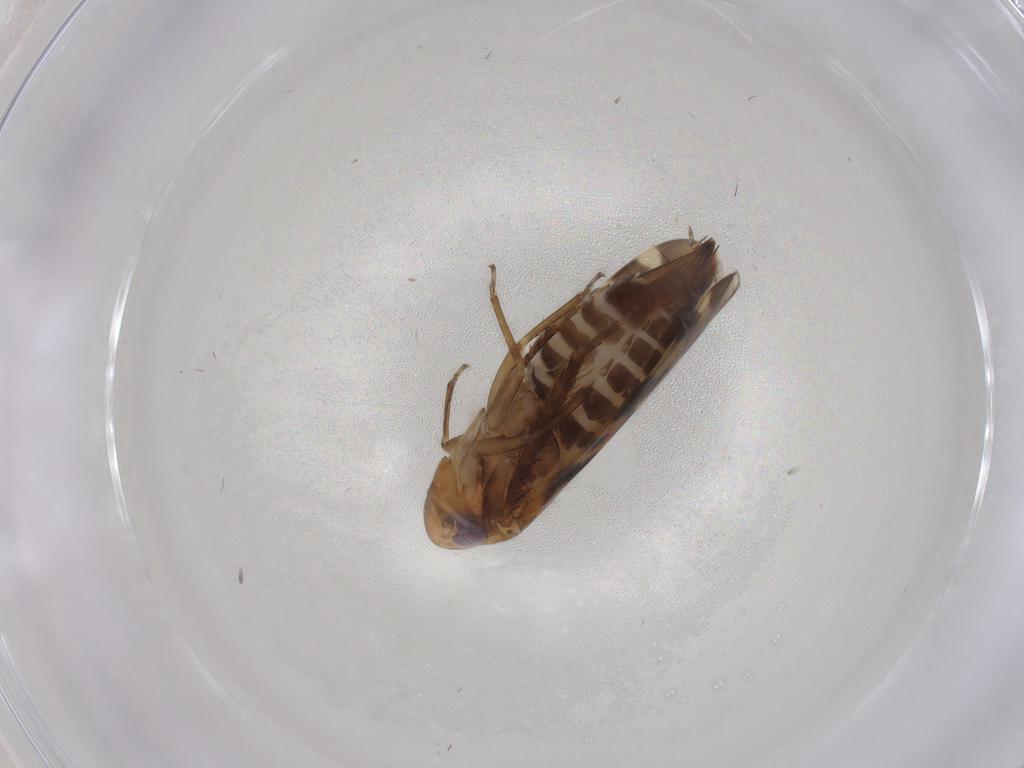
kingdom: Animalia
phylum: Arthropoda
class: Insecta
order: Hemiptera
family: Cicadellidae
